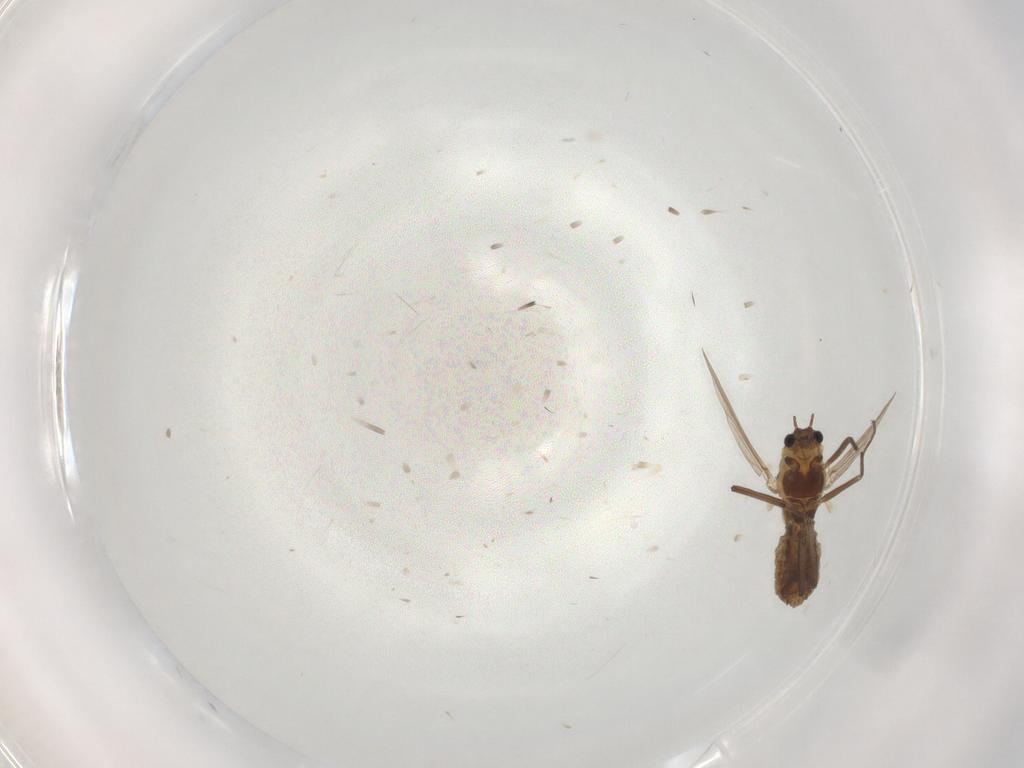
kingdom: Animalia
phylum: Arthropoda
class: Insecta
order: Diptera
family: Chironomidae
